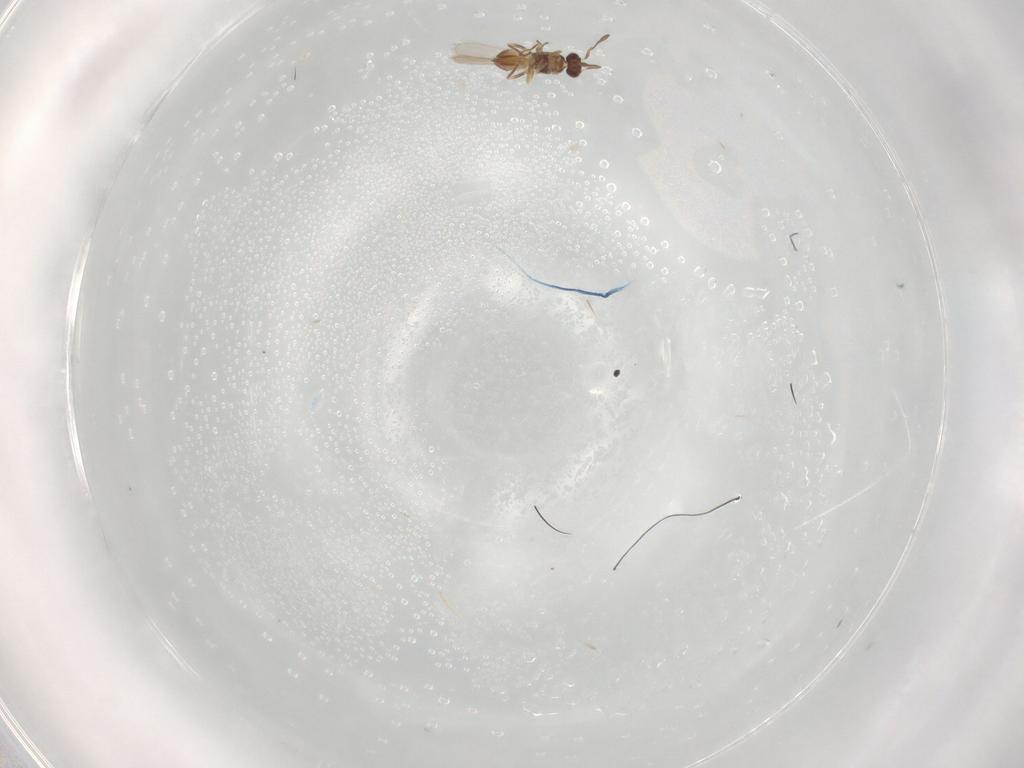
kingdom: Animalia
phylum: Arthropoda
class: Insecta
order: Hymenoptera
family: Mymaridae
